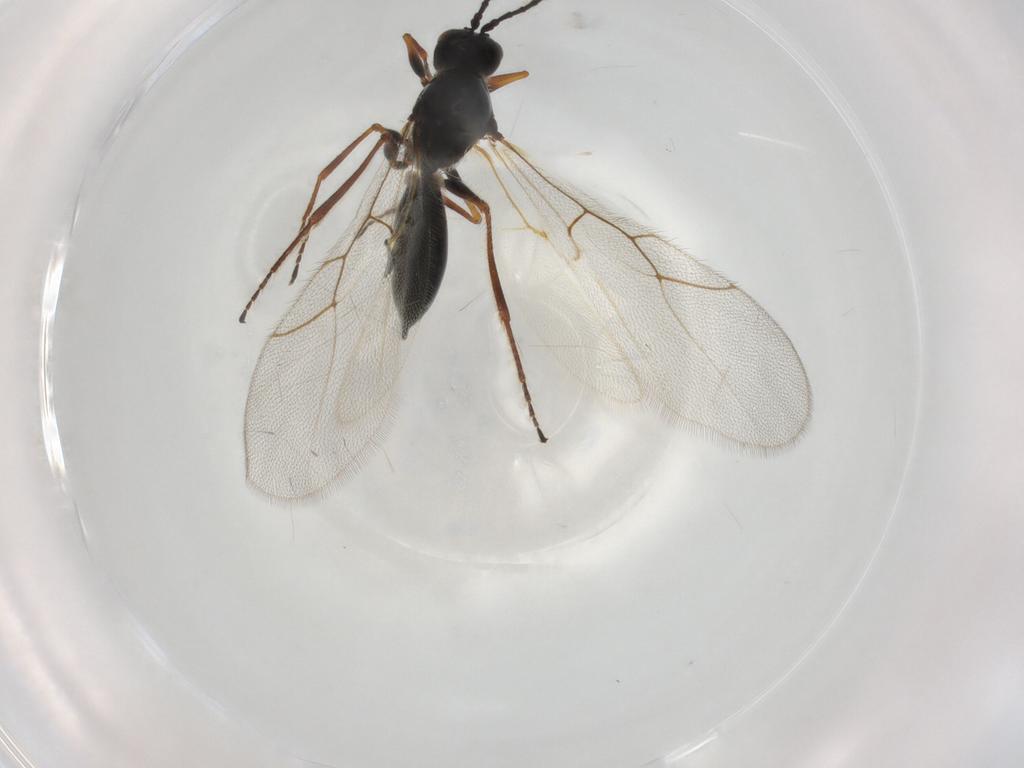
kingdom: Animalia
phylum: Arthropoda
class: Insecta
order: Hymenoptera
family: Figitidae
